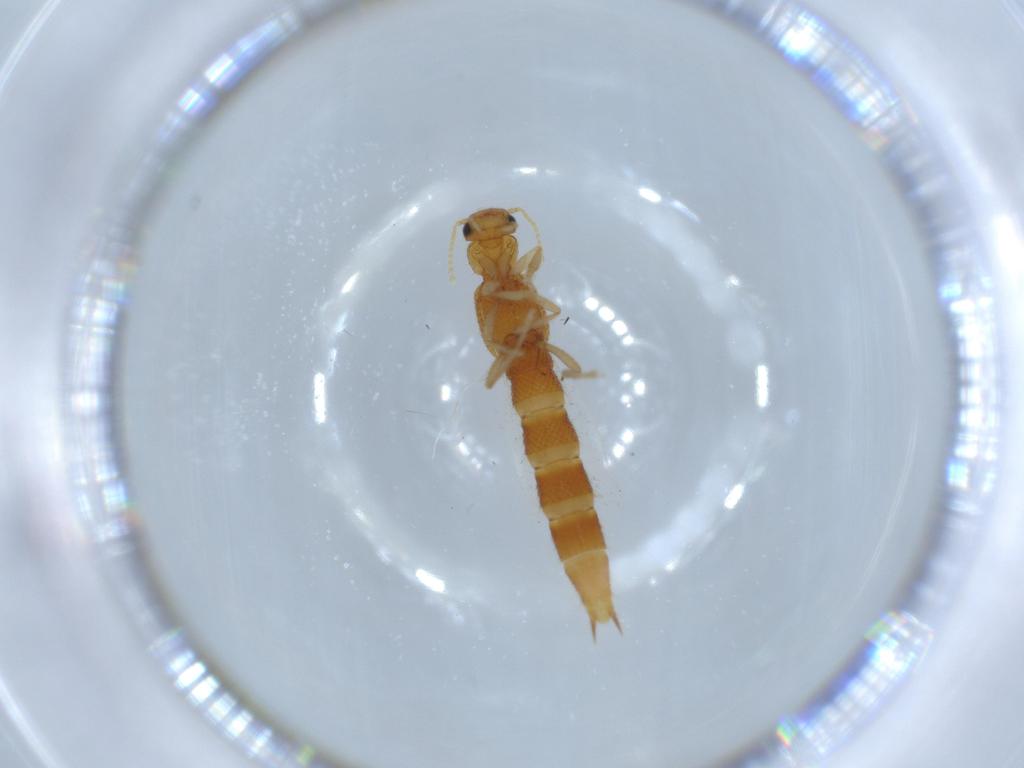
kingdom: Animalia
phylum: Arthropoda
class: Insecta
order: Coleoptera
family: Staphylinidae
